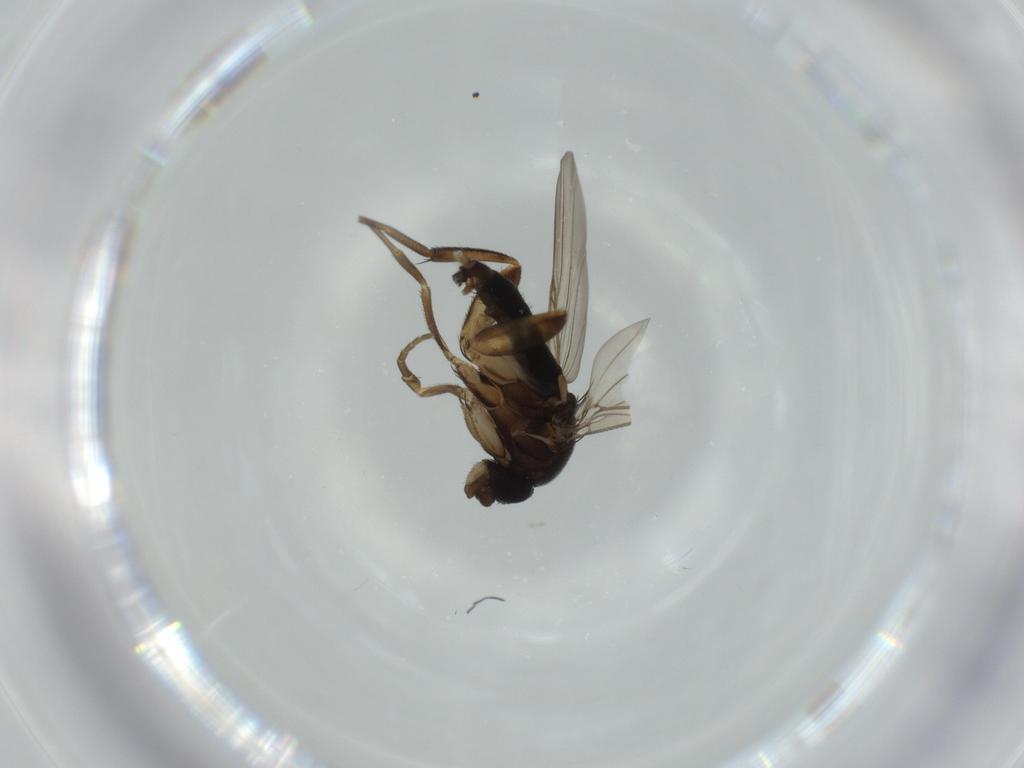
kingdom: Animalia
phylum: Arthropoda
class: Insecta
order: Diptera
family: Phoridae
